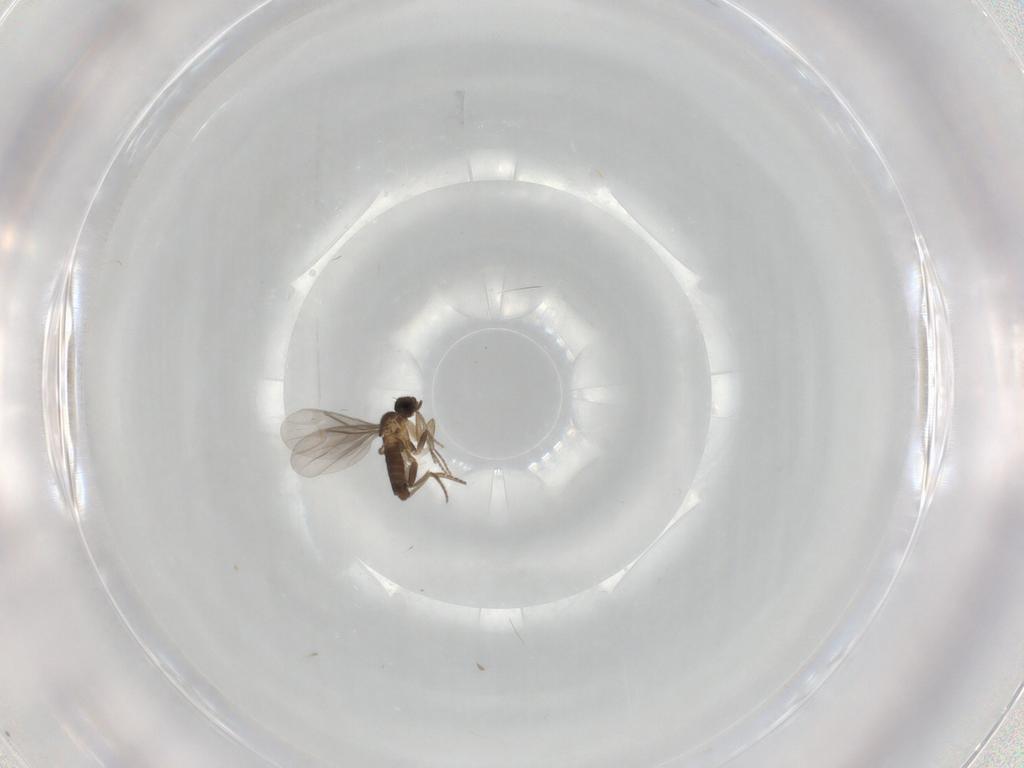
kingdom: Animalia
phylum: Arthropoda
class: Insecta
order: Diptera
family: Phoridae
